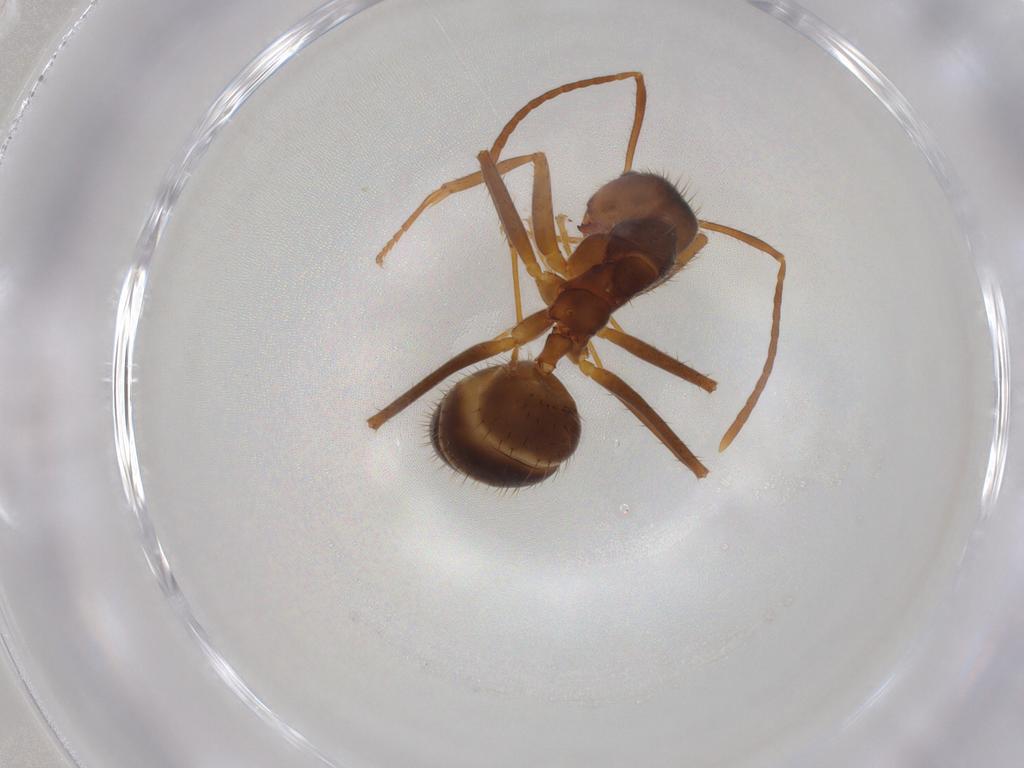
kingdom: Animalia
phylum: Arthropoda
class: Insecta
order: Hymenoptera
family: Formicidae
